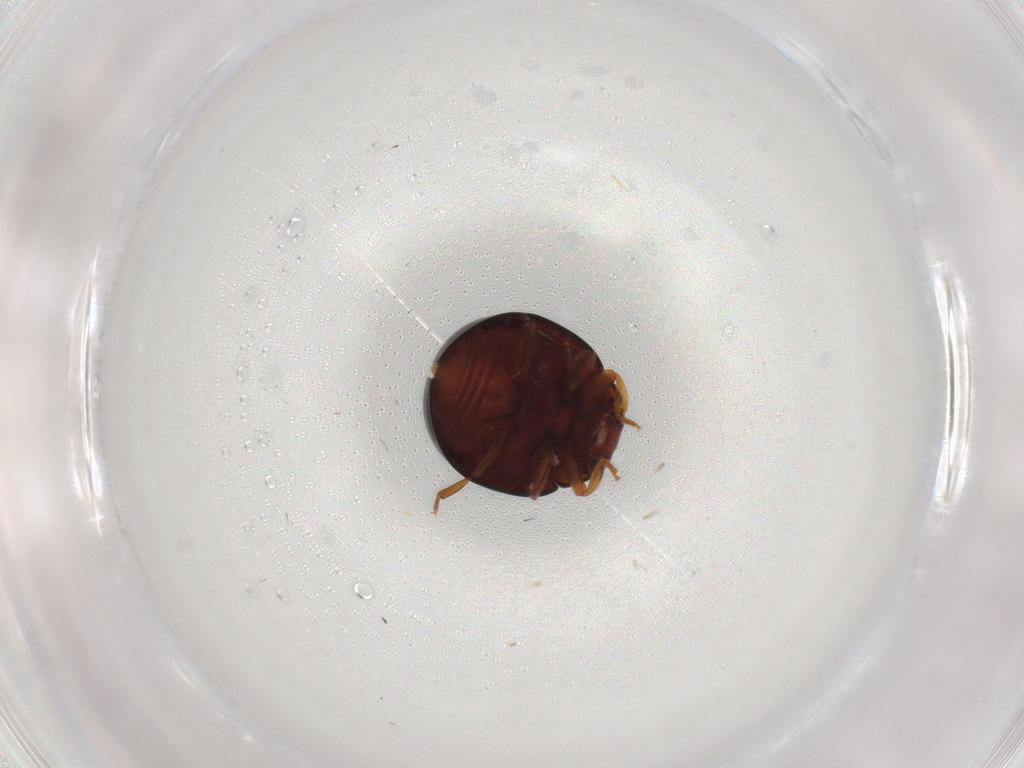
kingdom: Animalia
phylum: Arthropoda
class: Insecta
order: Coleoptera
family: Coccinellidae
